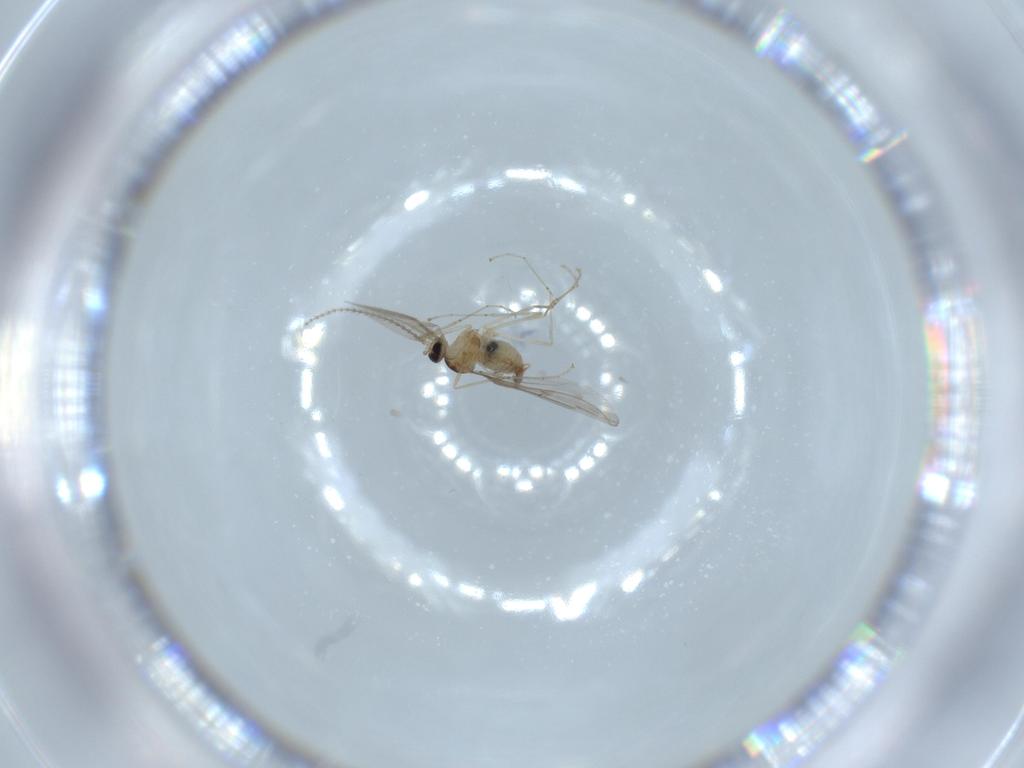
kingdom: Animalia
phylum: Arthropoda
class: Insecta
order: Diptera
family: Cecidomyiidae
